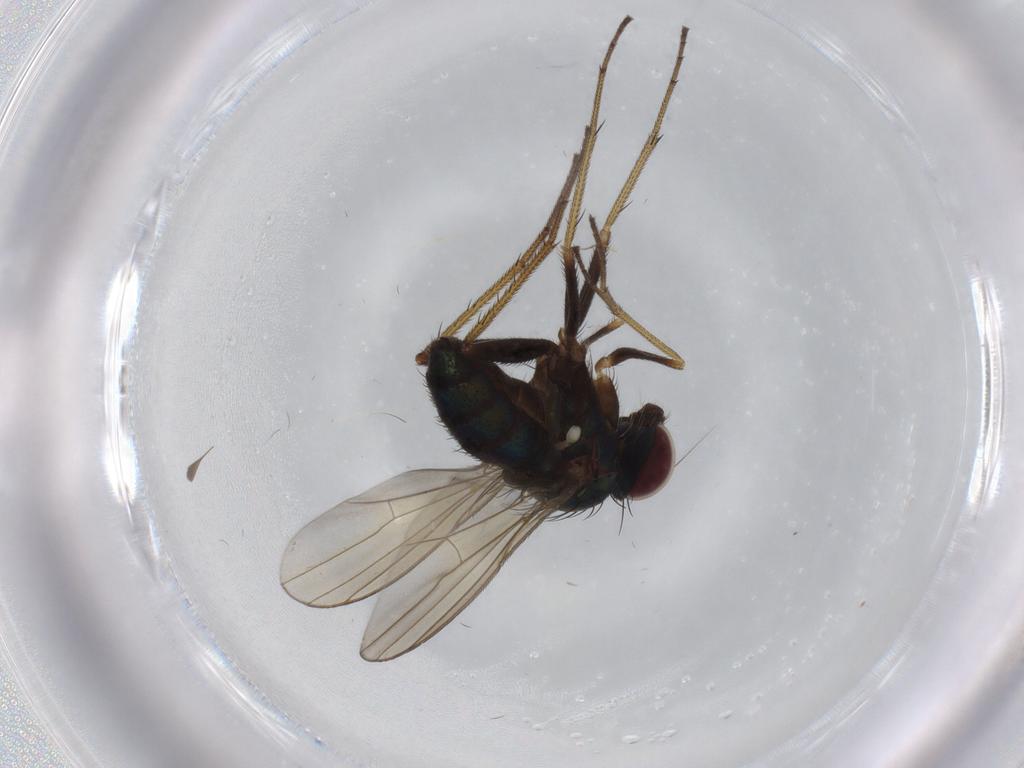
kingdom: Animalia
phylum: Arthropoda
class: Insecta
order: Diptera
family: Dolichopodidae
